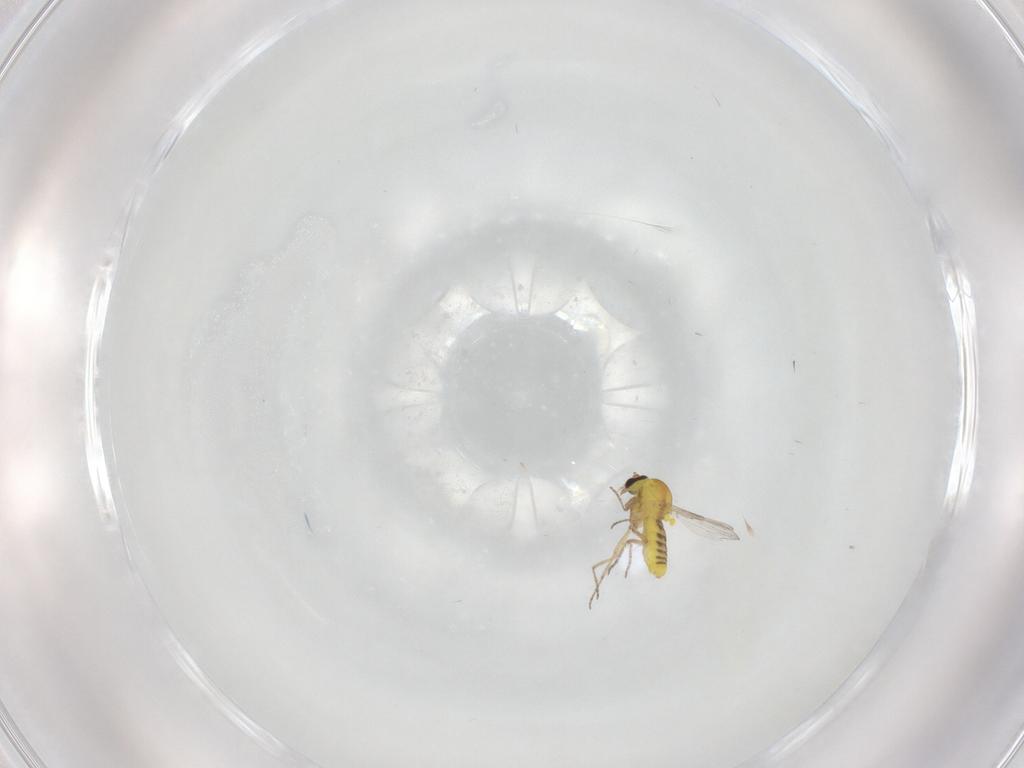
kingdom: Animalia
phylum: Arthropoda
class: Insecta
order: Diptera
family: Ceratopogonidae
